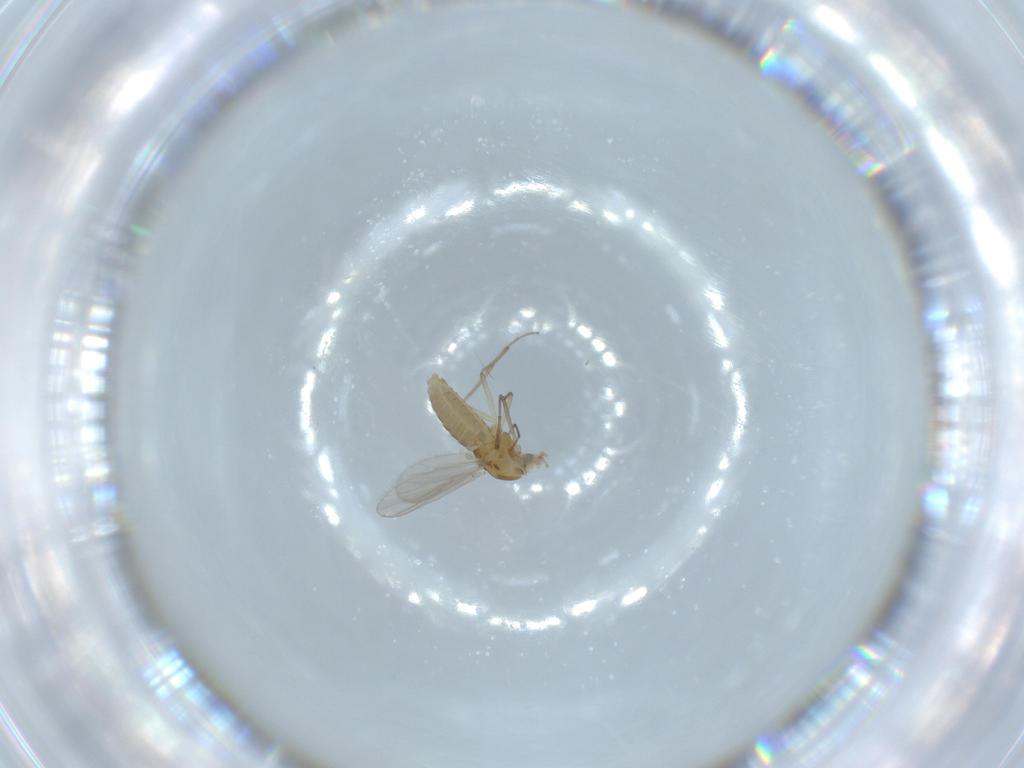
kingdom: Animalia
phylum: Arthropoda
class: Insecta
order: Diptera
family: Chironomidae
